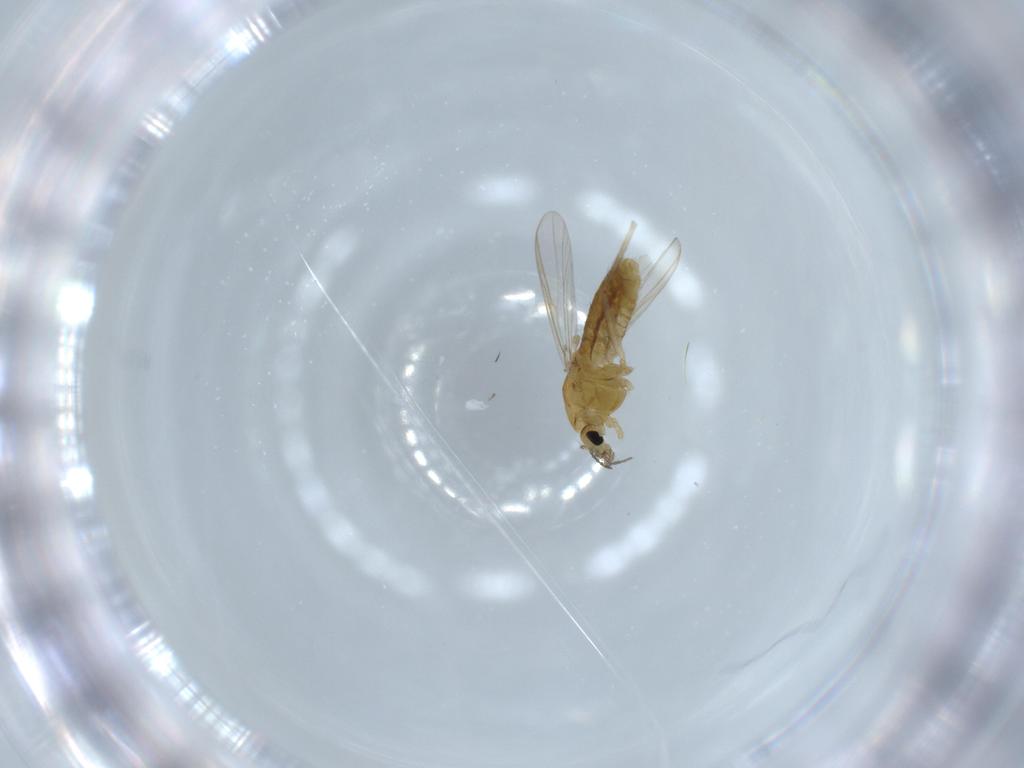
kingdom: Animalia
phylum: Arthropoda
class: Insecta
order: Diptera
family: Cecidomyiidae
